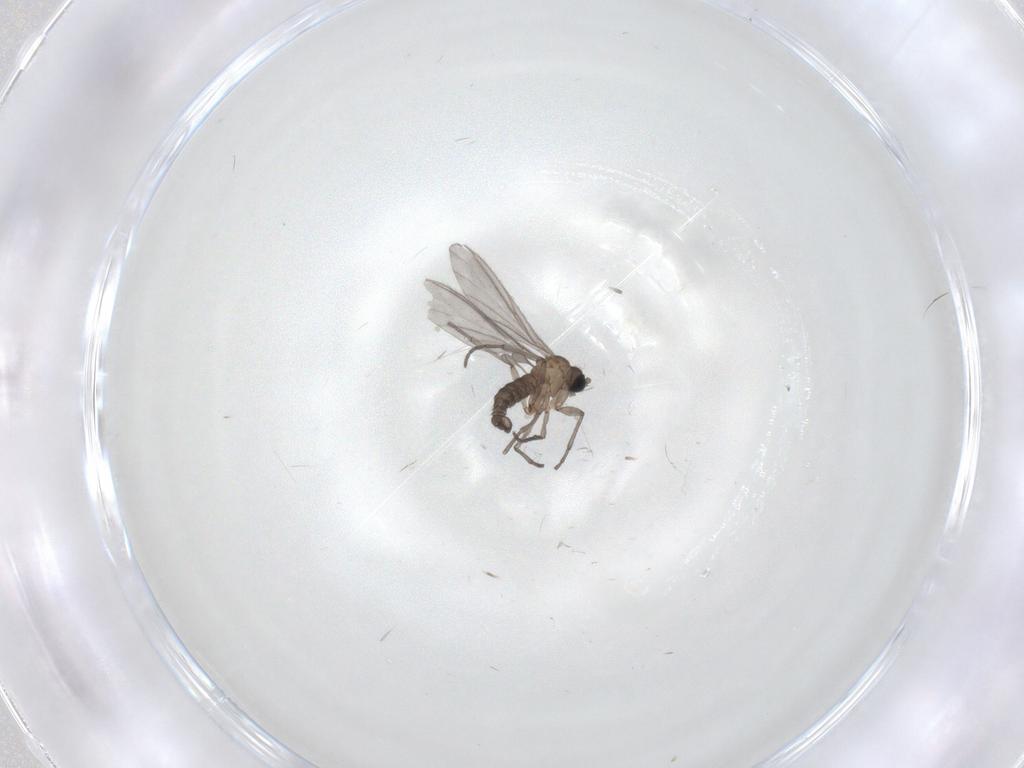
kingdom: Animalia
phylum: Arthropoda
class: Insecta
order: Diptera
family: Sciaridae
